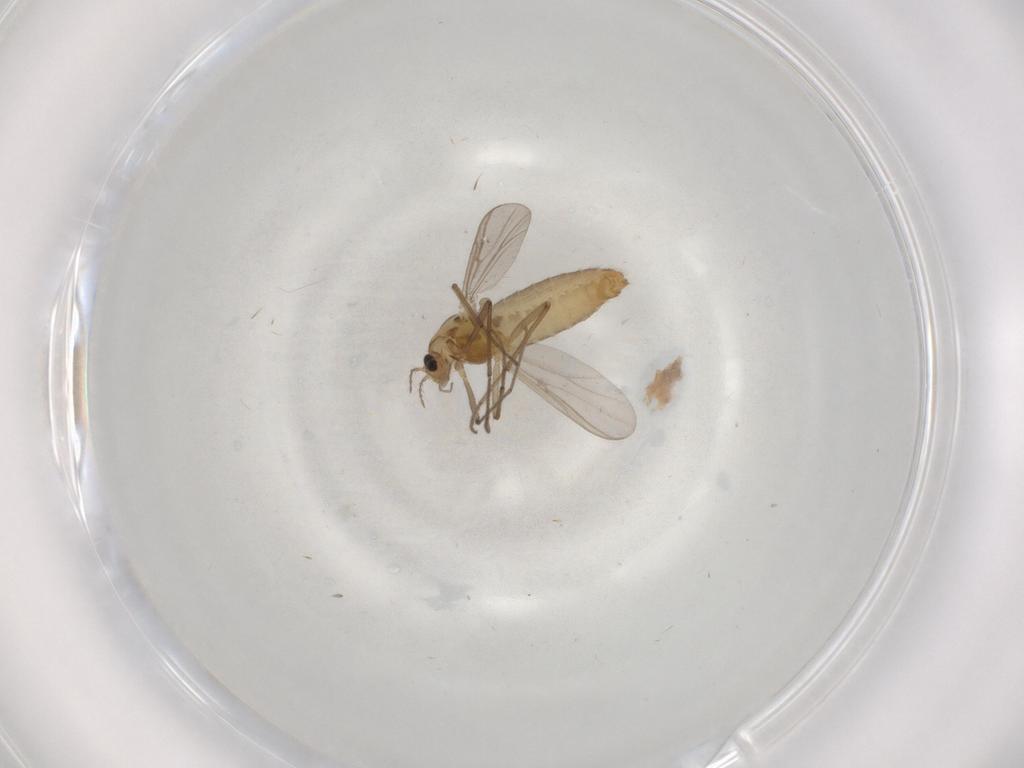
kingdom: Animalia
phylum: Arthropoda
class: Insecta
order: Diptera
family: Chironomidae
